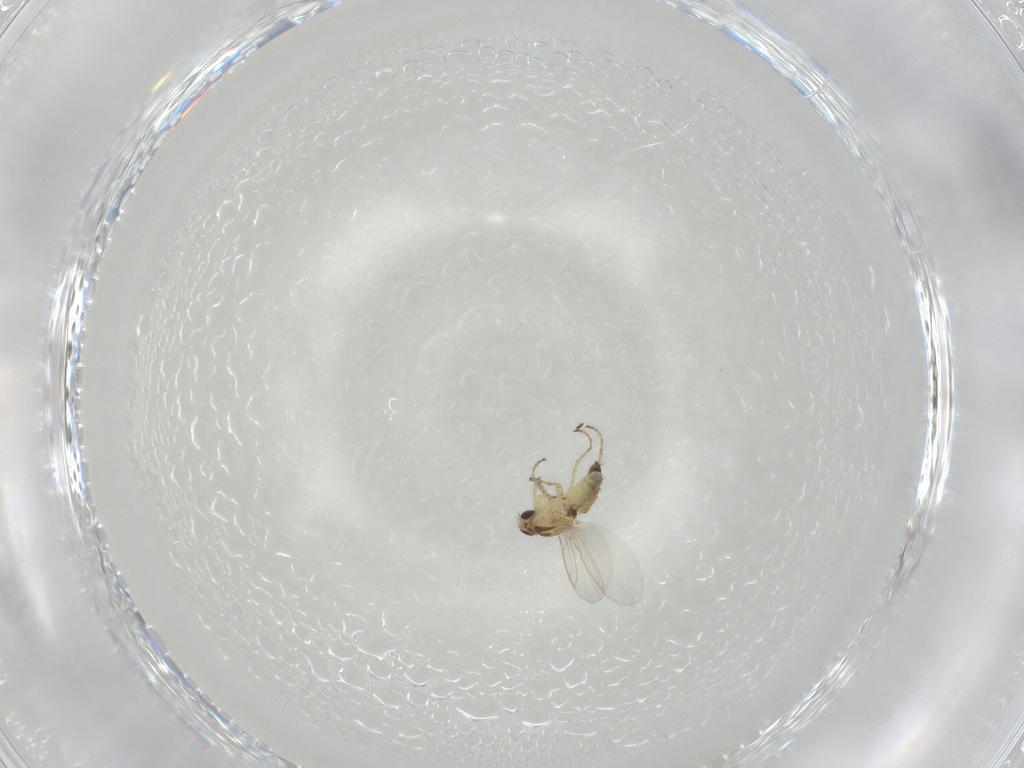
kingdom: Animalia
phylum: Arthropoda
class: Insecta
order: Diptera
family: Agromyzidae
